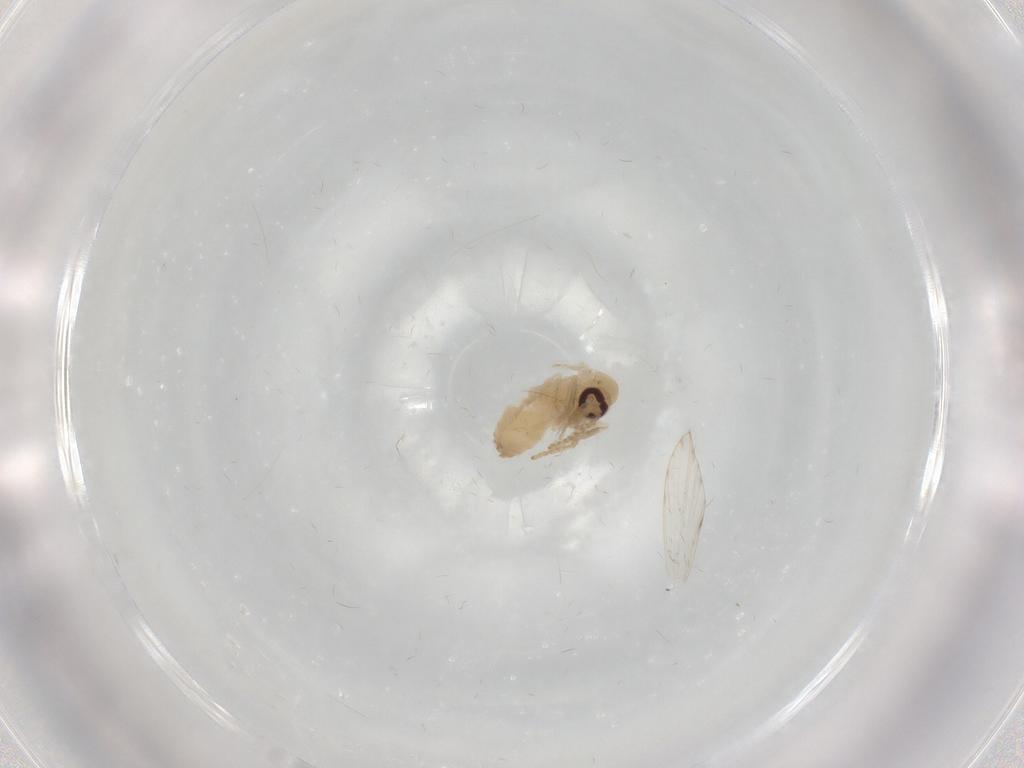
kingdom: Animalia
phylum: Arthropoda
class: Insecta
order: Diptera
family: Psychodidae
